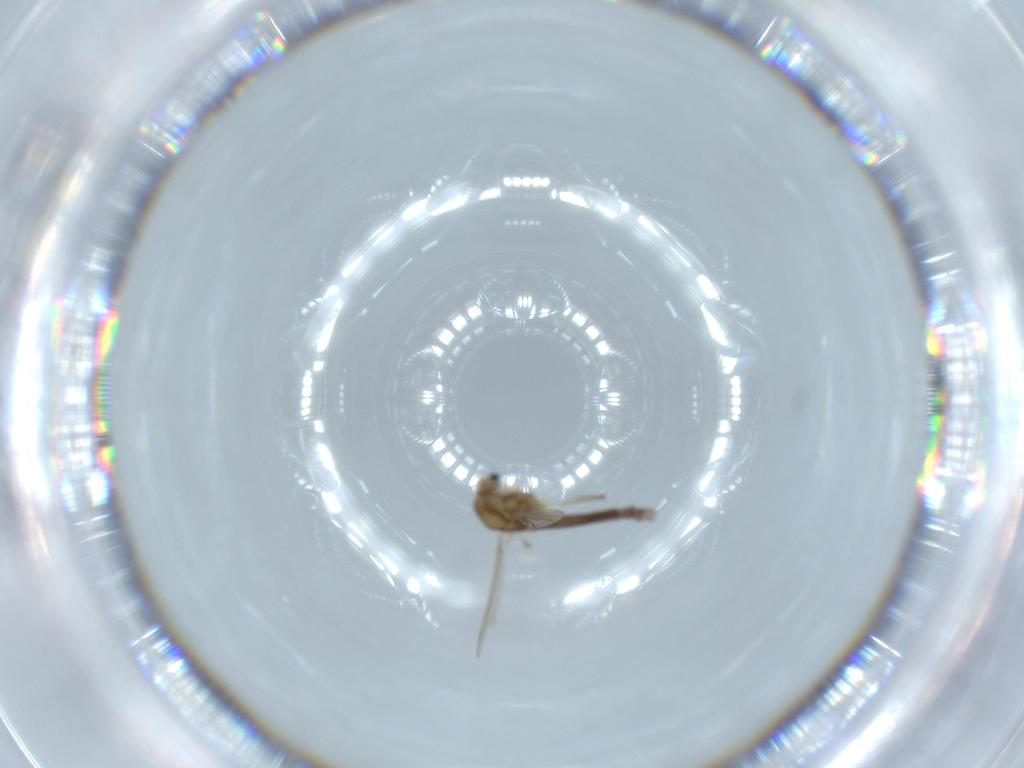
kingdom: Animalia
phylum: Arthropoda
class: Insecta
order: Diptera
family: Chironomidae
